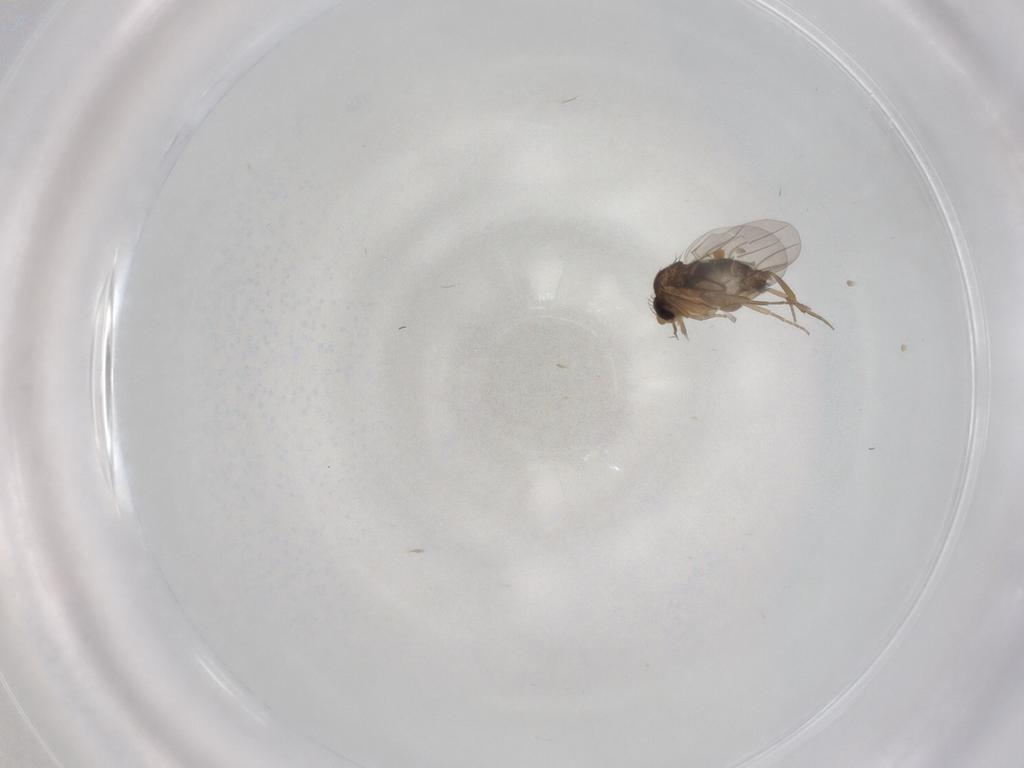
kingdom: Animalia
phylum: Arthropoda
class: Insecta
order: Diptera
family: Phoridae
